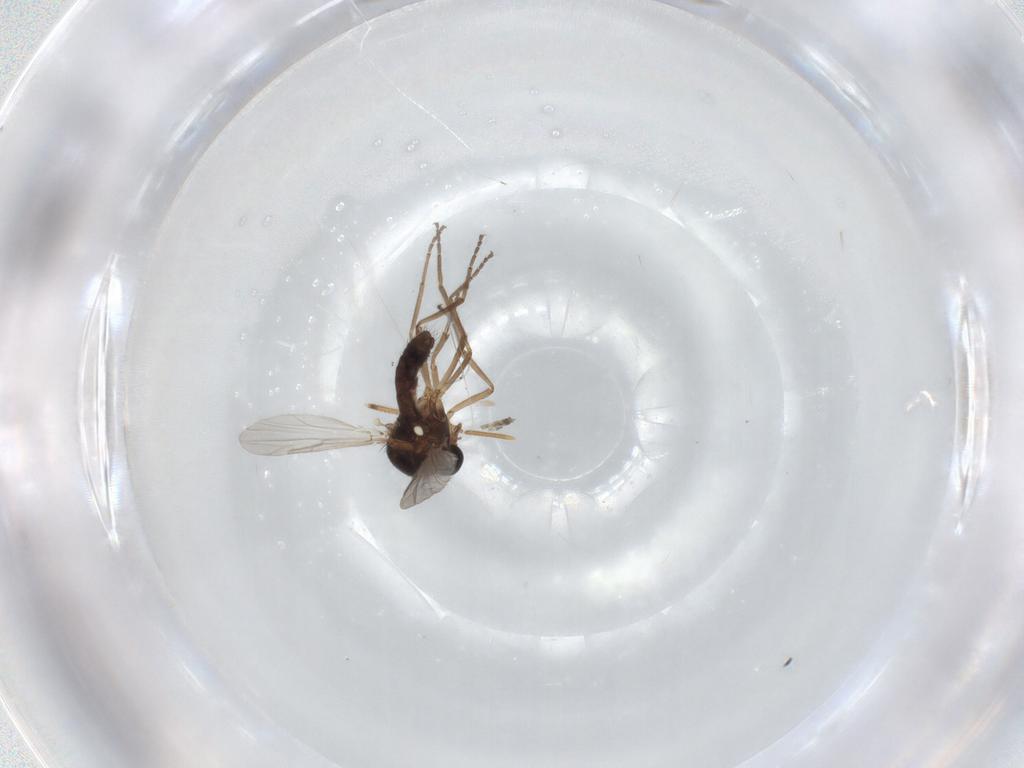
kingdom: Animalia
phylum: Arthropoda
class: Insecta
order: Diptera
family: Ceratopogonidae
